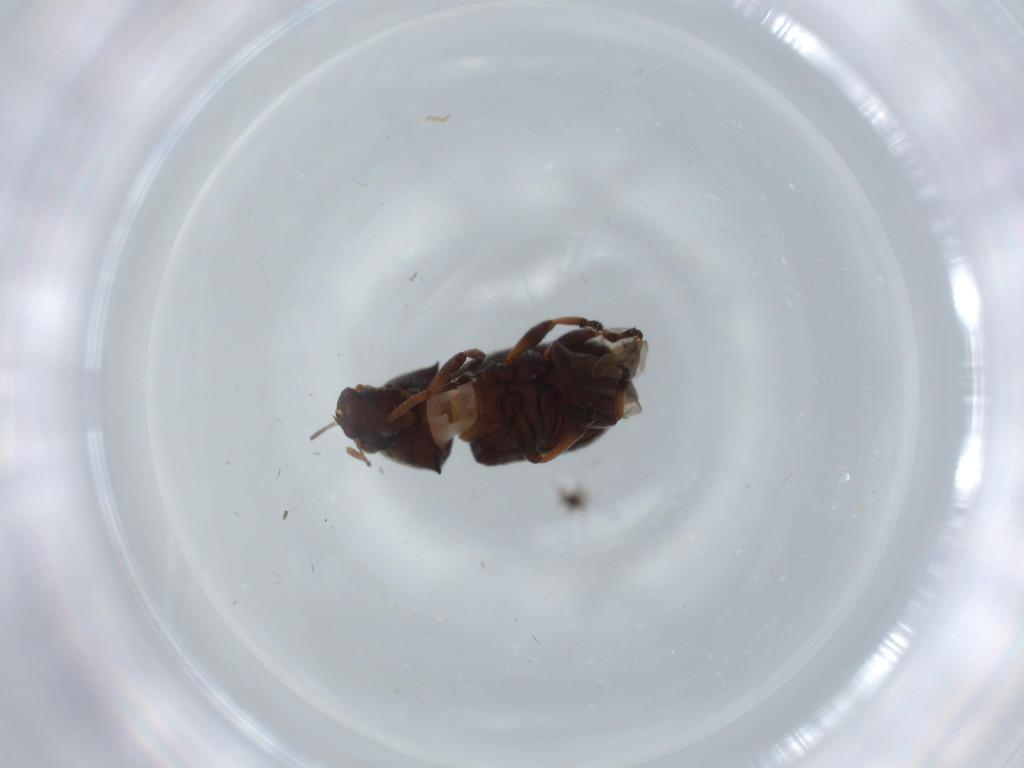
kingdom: Animalia
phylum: Arthropoda
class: Insecta
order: Coleoptera
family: Anthribidae
